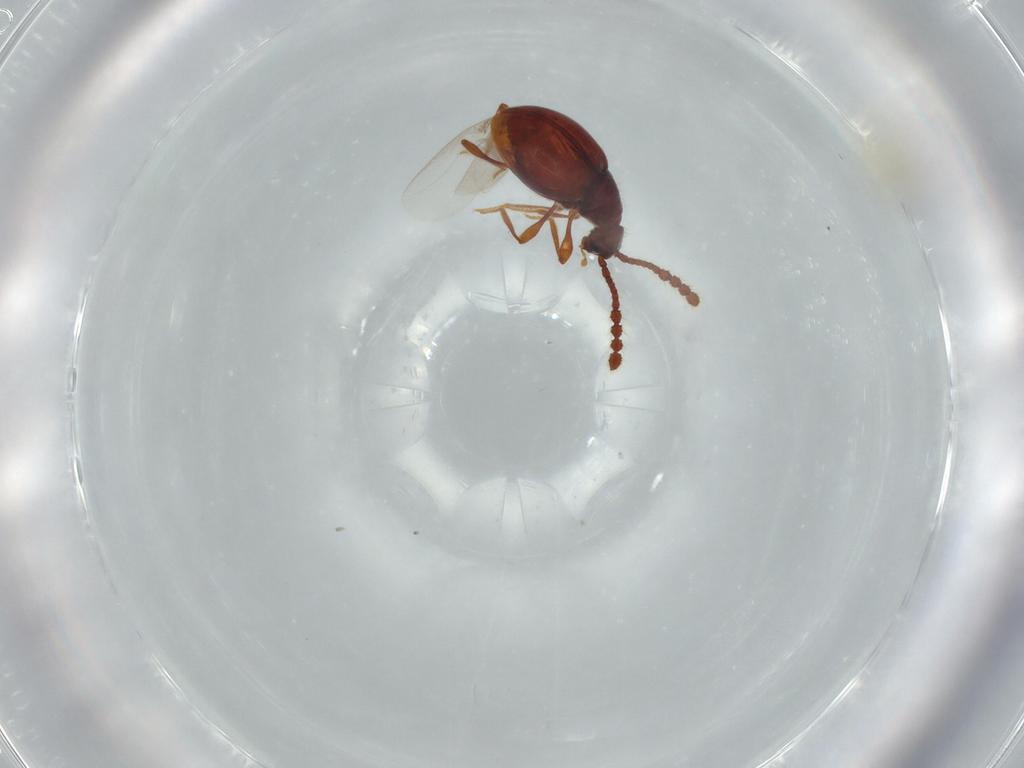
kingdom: Animalia
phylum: Arthropoda
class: Insecta
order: Coleoptera
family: Staphylinidae
